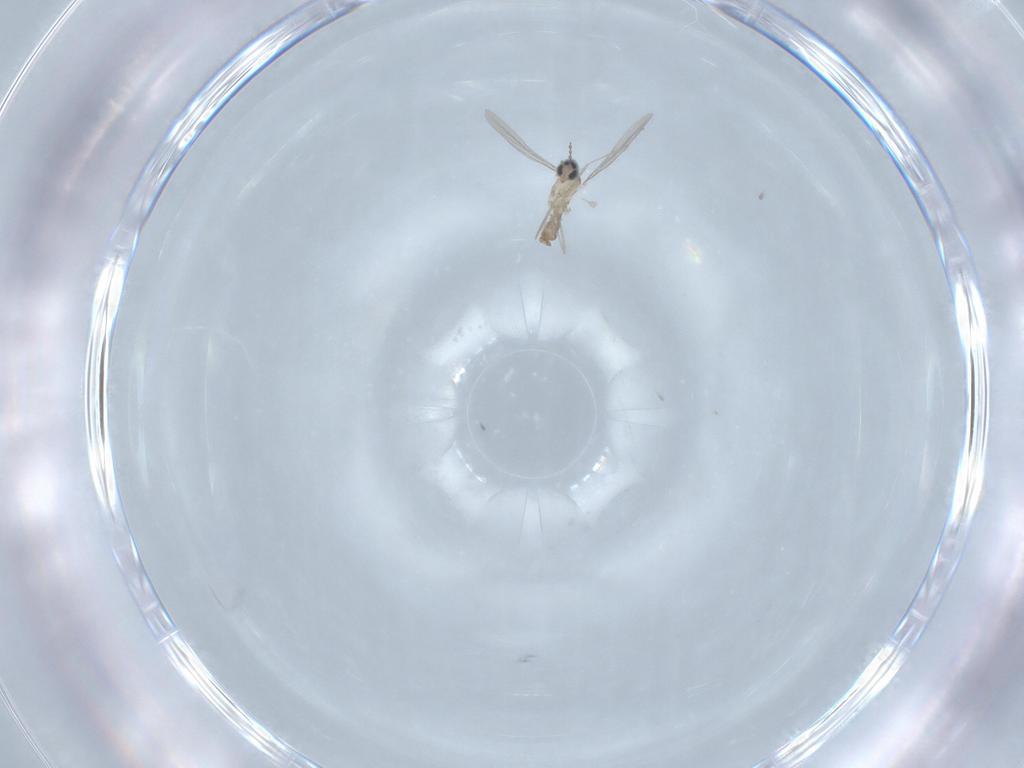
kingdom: Animalia
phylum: Arthropoda
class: Insecta
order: Diptera
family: Cecidomyiidae
